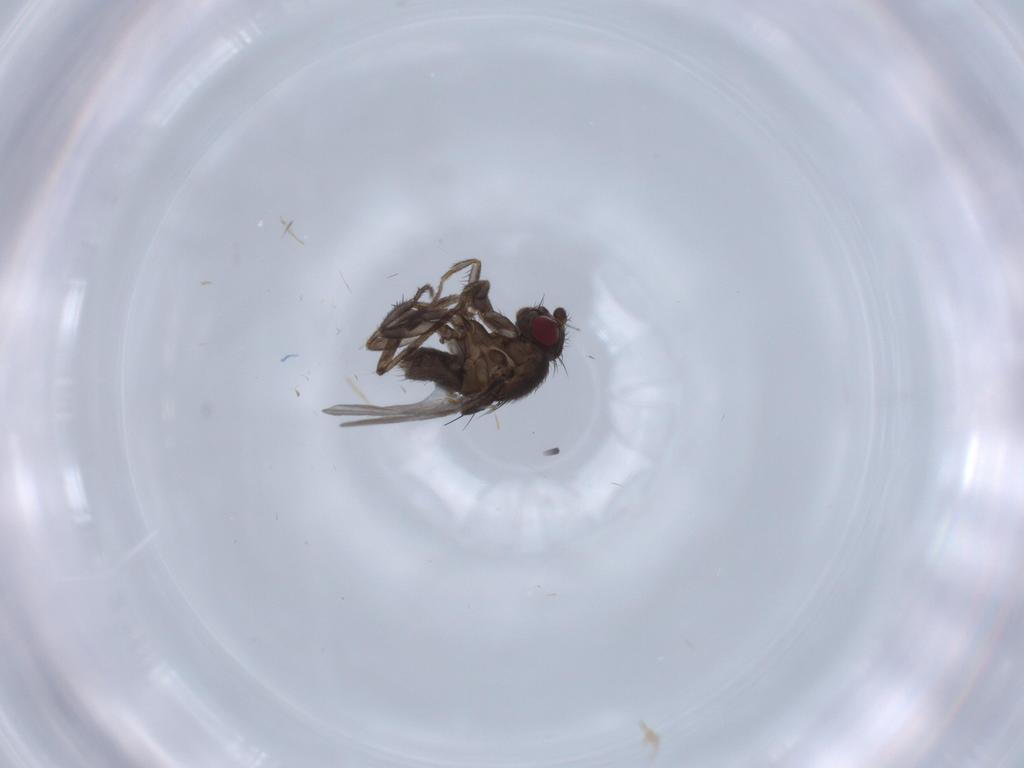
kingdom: Animalia
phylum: Arthropoda
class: Insecta
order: Diptera
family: Sphaeroceridae
